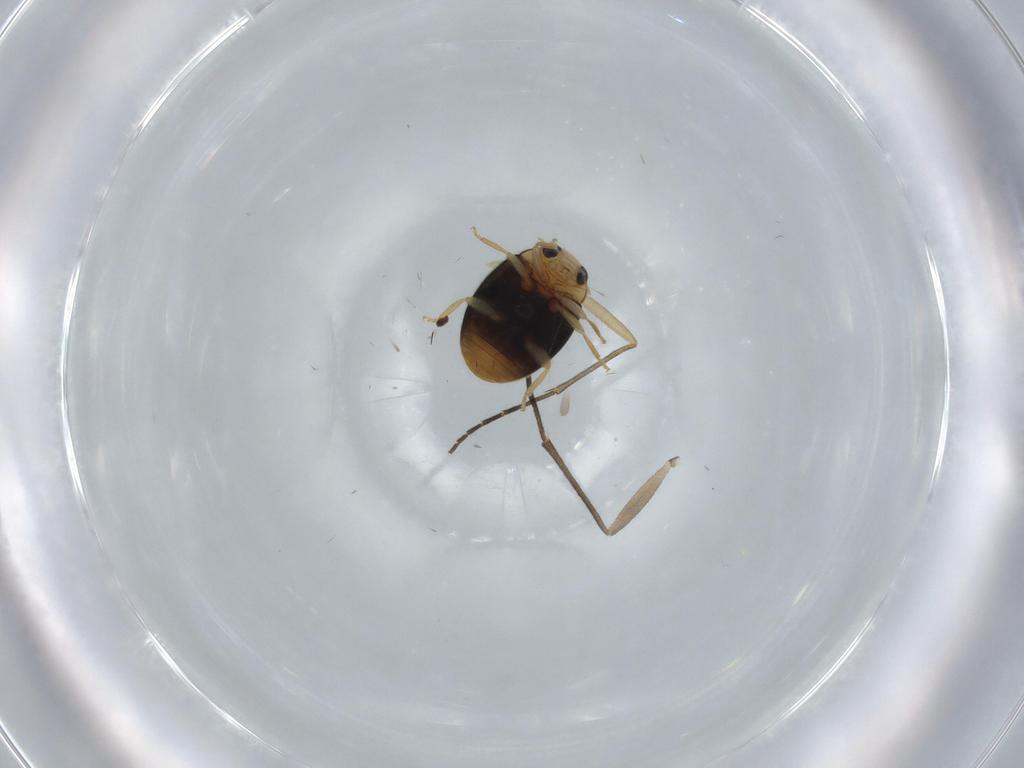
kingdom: Animalia
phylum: Arthropoda
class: Insecta
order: Coleoptera
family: Coccinellidae
